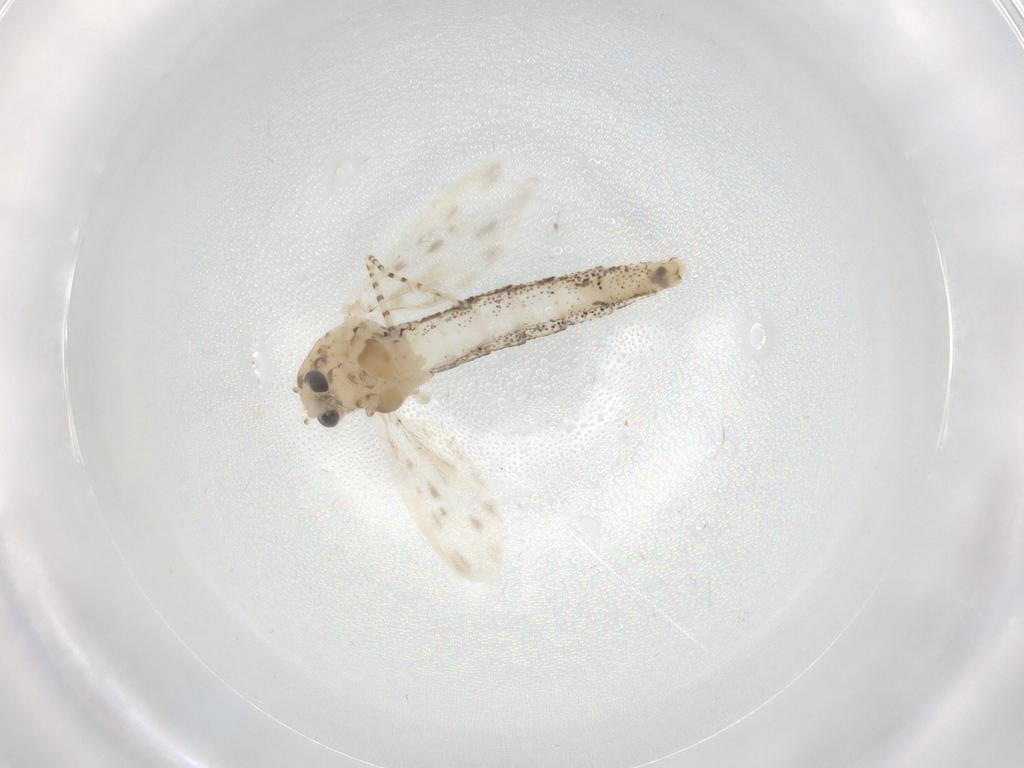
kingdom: Animalia
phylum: Arthropoda
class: Insecta
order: Diptera
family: Chaoboridae
